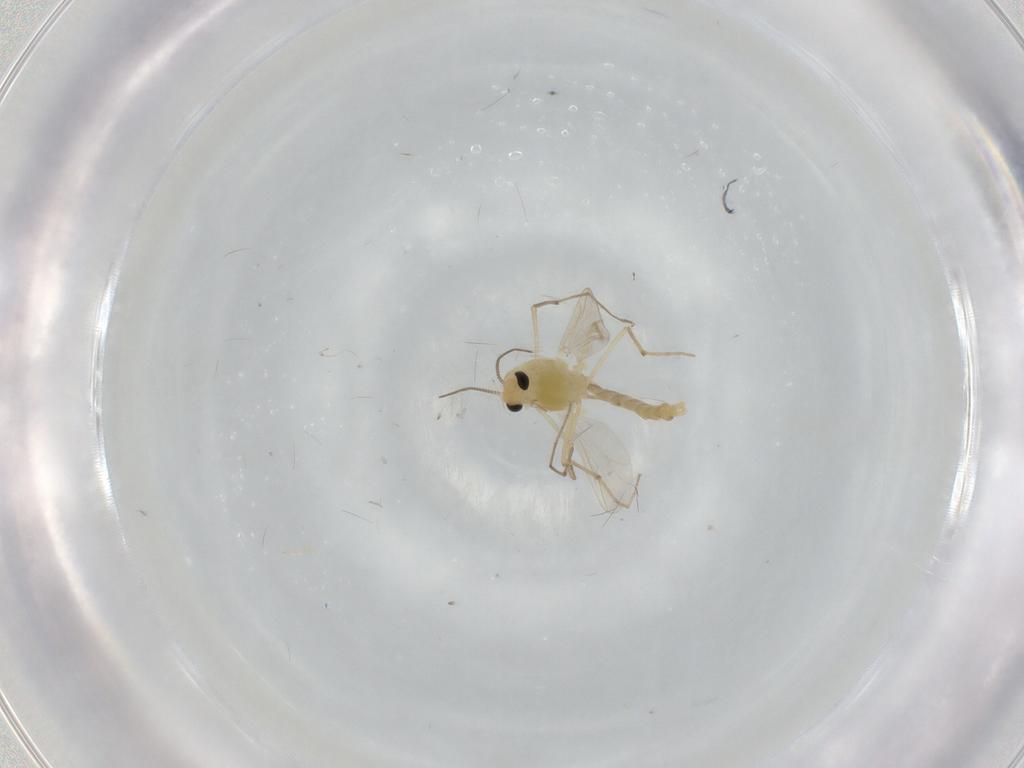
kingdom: Animalia
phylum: Arthropoda
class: Insecta
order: Diptera
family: Chironomidae
